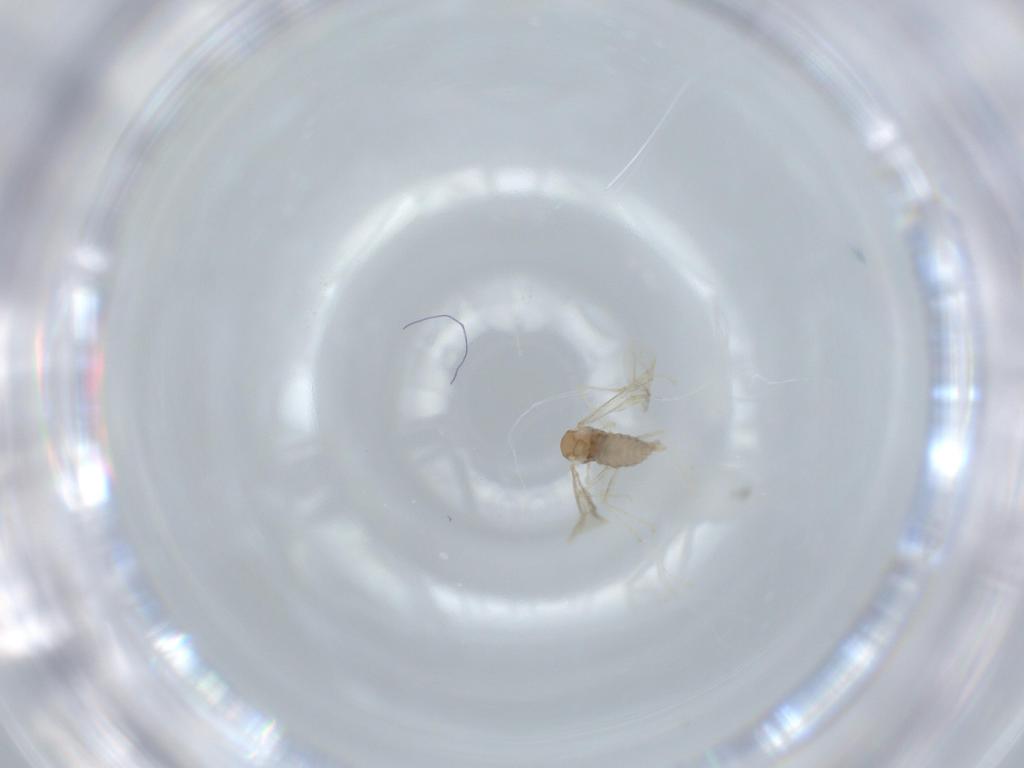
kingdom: Animalia
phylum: Arthropoda
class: Insecta
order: Diptera
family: Cecidomyiidae
